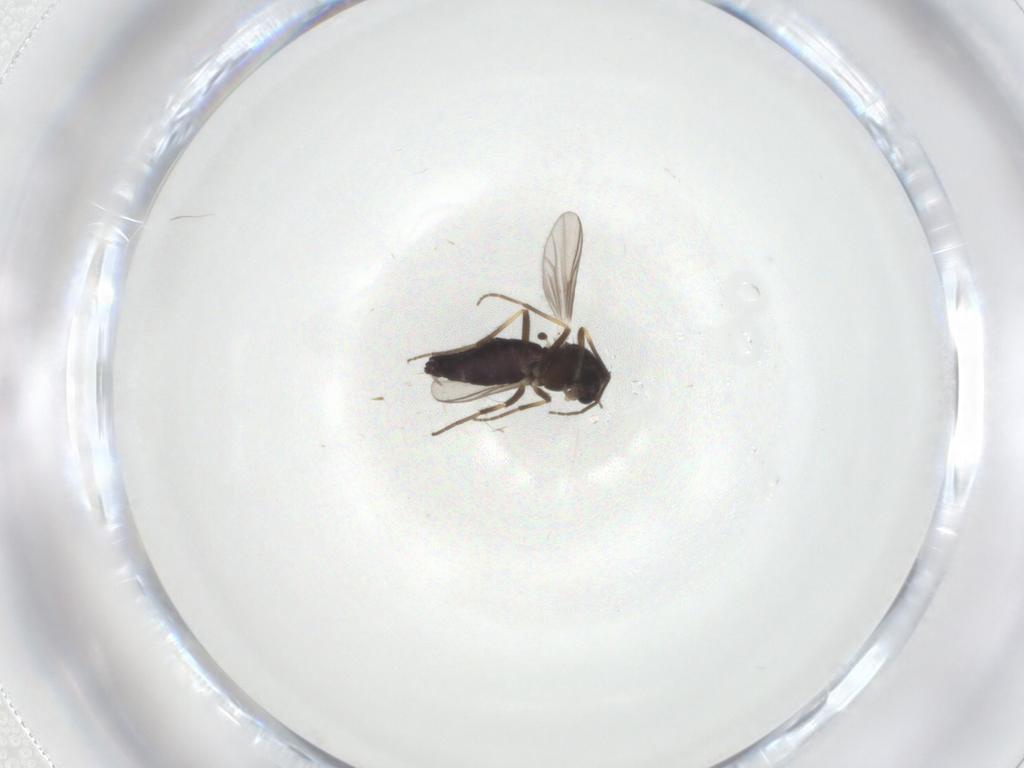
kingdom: Animalia
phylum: Arthropoda
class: Insecta
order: Diptera
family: Chironomidae
